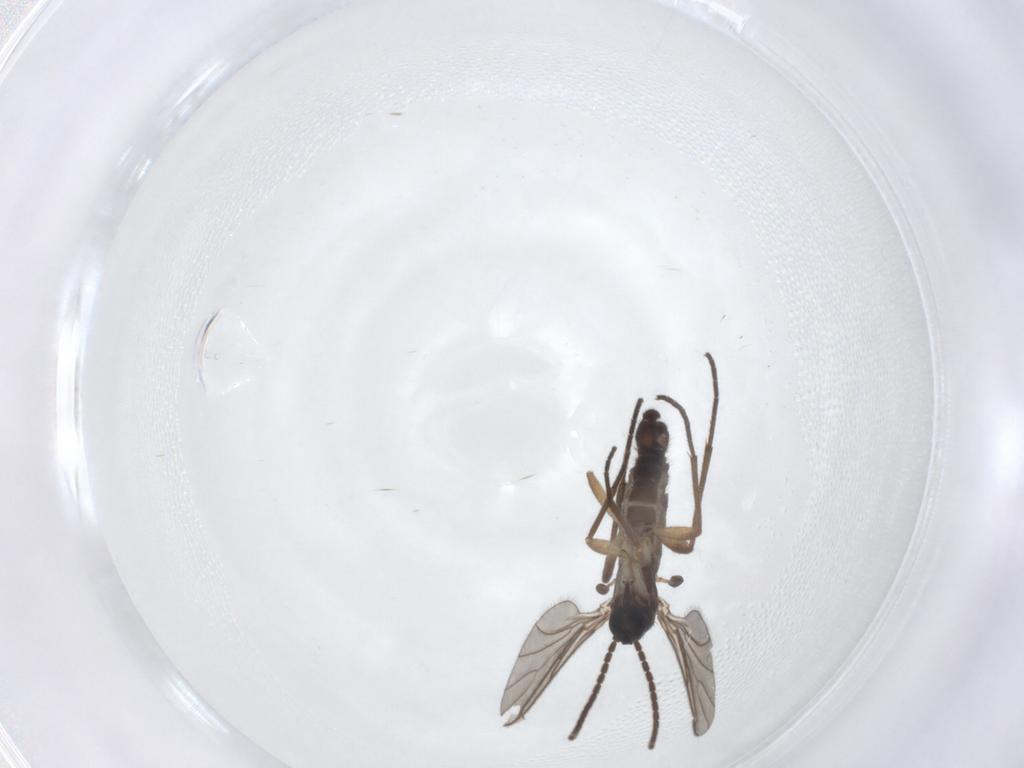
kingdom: Animalia
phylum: Arthropoda
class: Insecta
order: Diptera
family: Sciaridae
